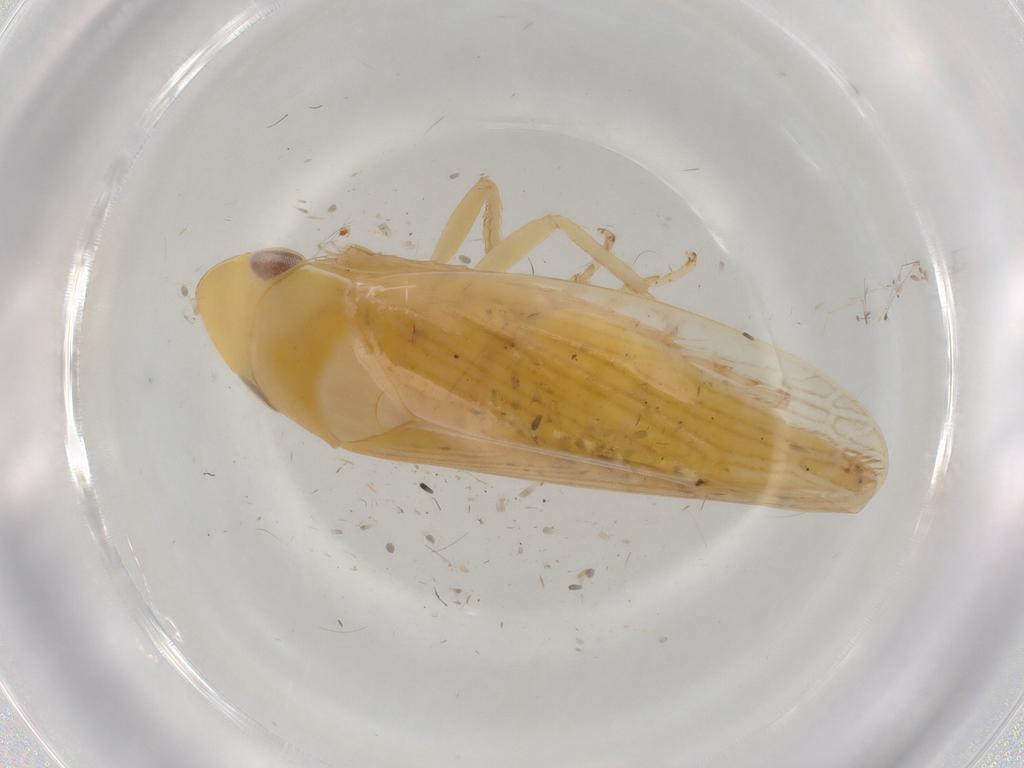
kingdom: Animalia
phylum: Arthropoda
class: Insecta
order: Hemiptera
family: Cicadellidae
